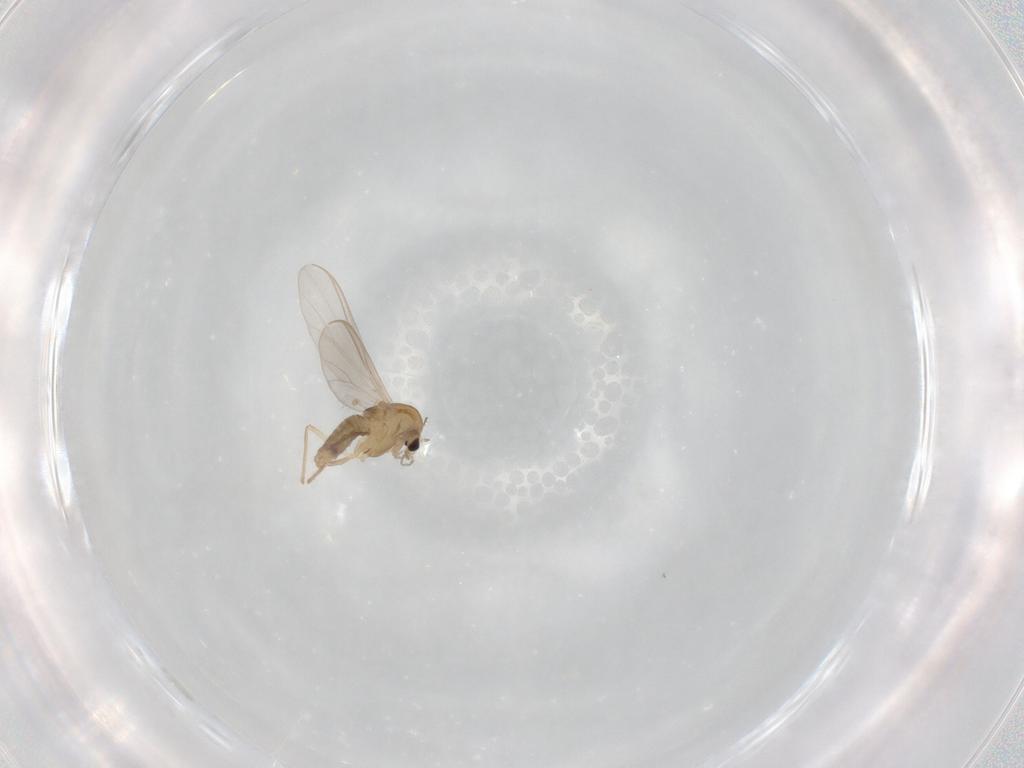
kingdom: Animalia
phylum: Arthropoda
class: Insecta
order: Diptera
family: Chironomidae
